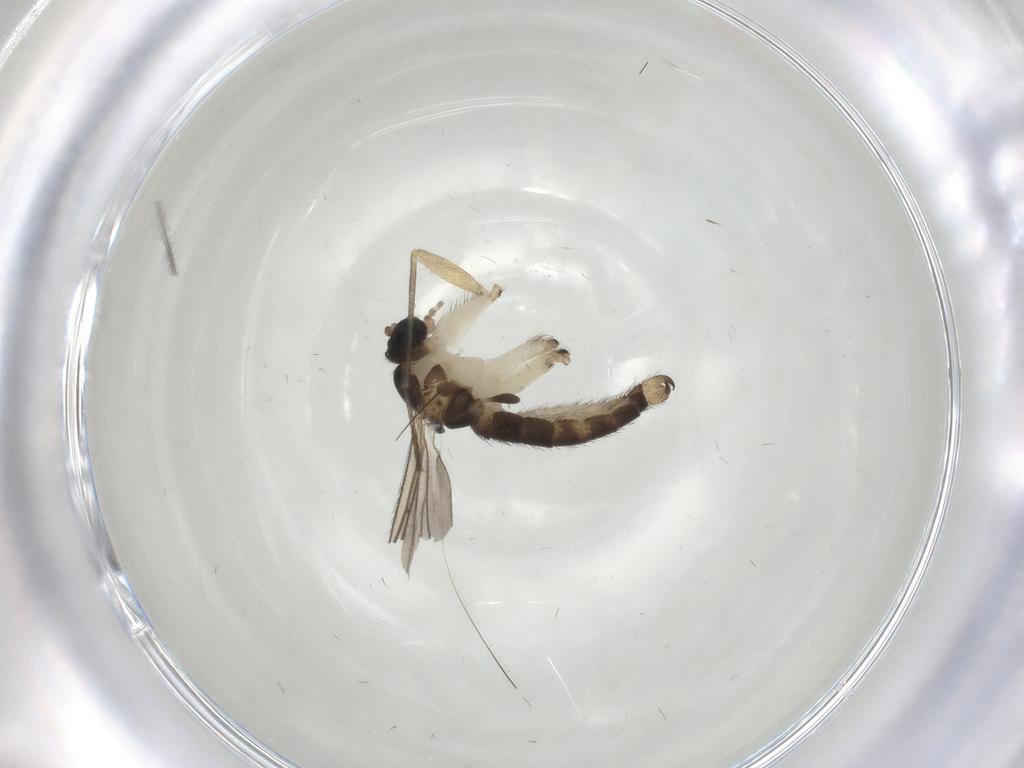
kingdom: Animalia
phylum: Arthropoda
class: Insecta
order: Diptera
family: Sciaridae
